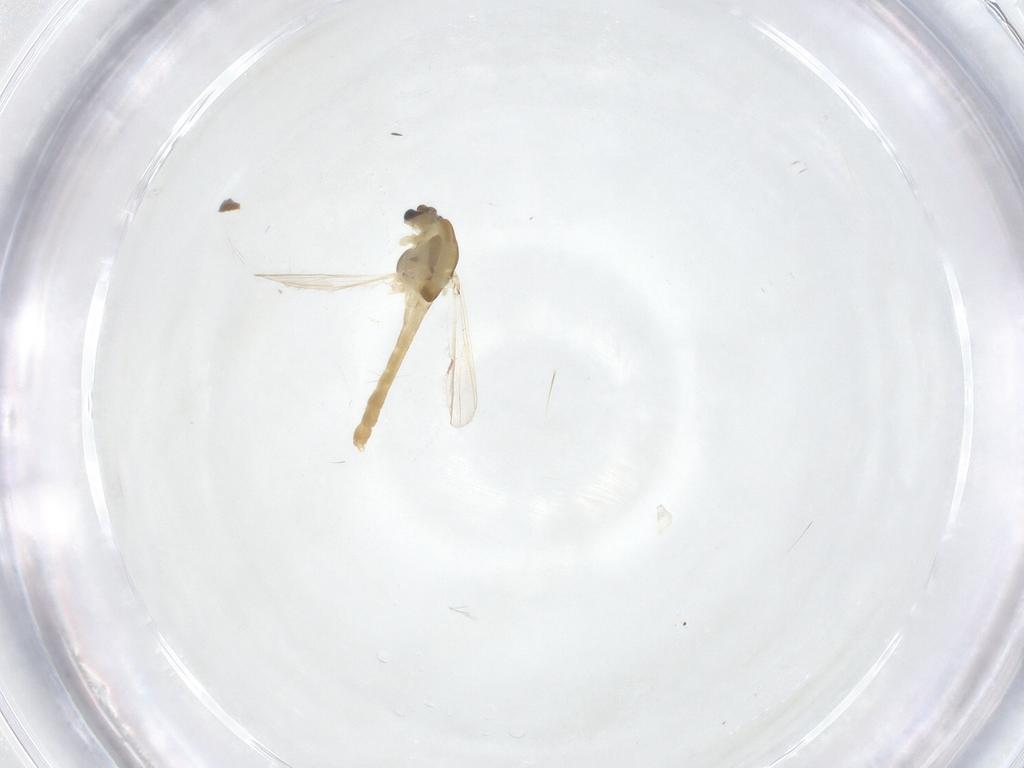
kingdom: Animalia
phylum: Arthropoda
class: Insecta
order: Diptera
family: Chironomidae
